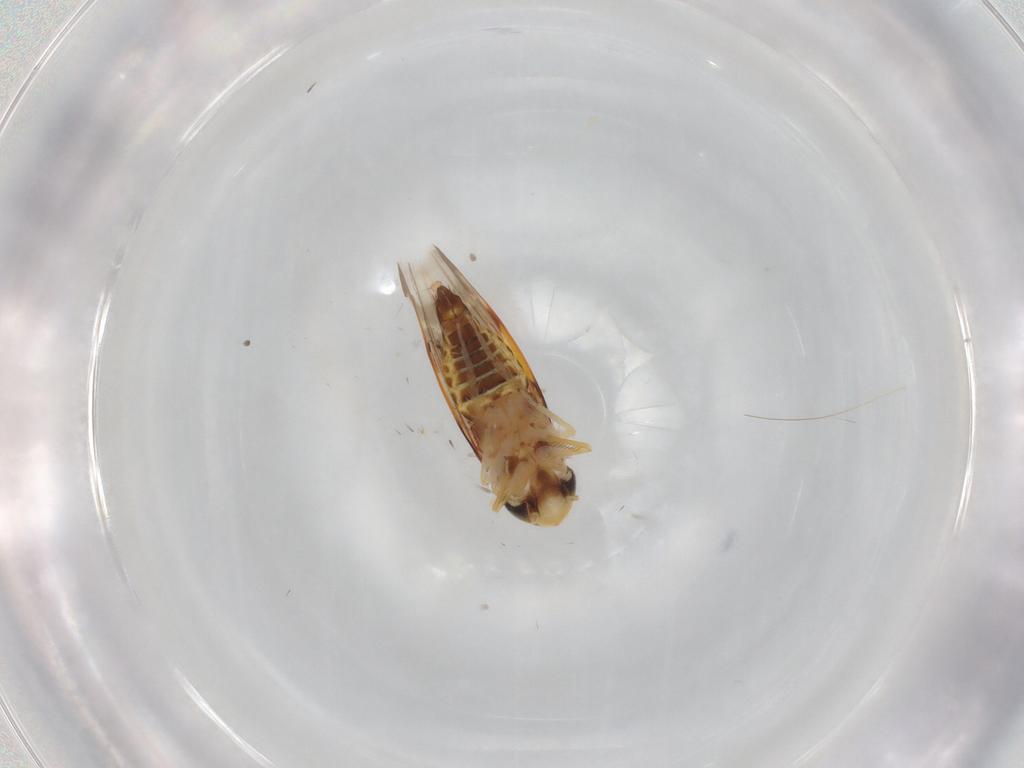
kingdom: Animalia
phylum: Arthropoda
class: Insecta
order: Hemiptera
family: Cicadellidae
